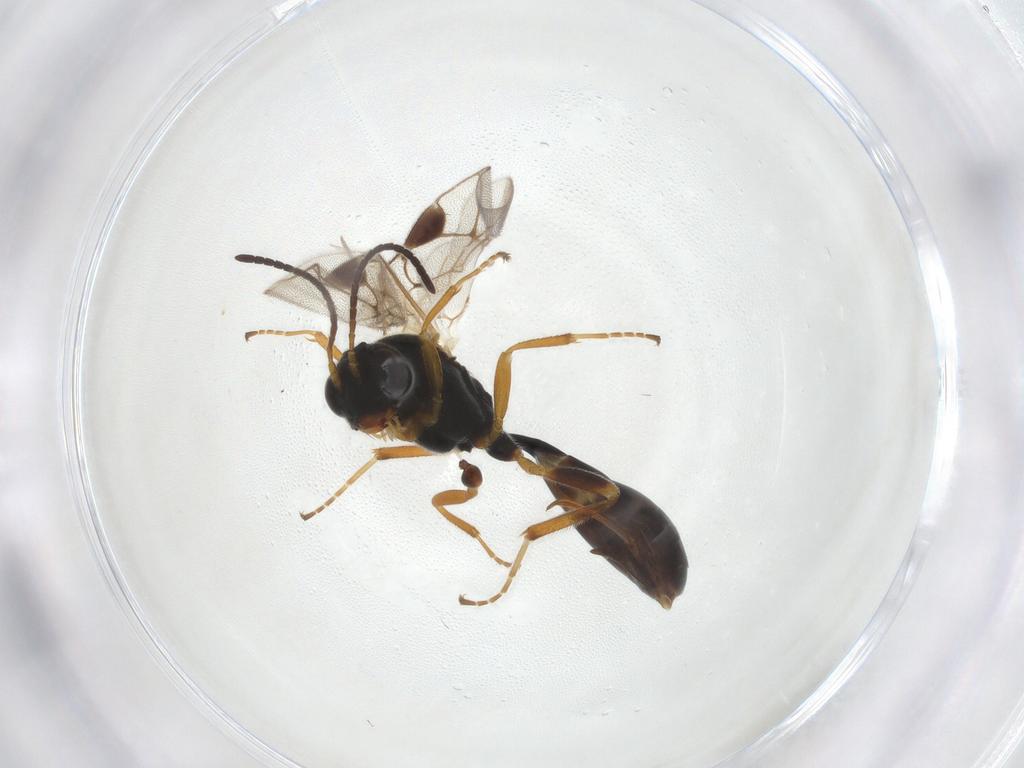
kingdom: Animalia
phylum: Arthropoda
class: Insecta
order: Hymenoptera
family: Ichneumonidae
